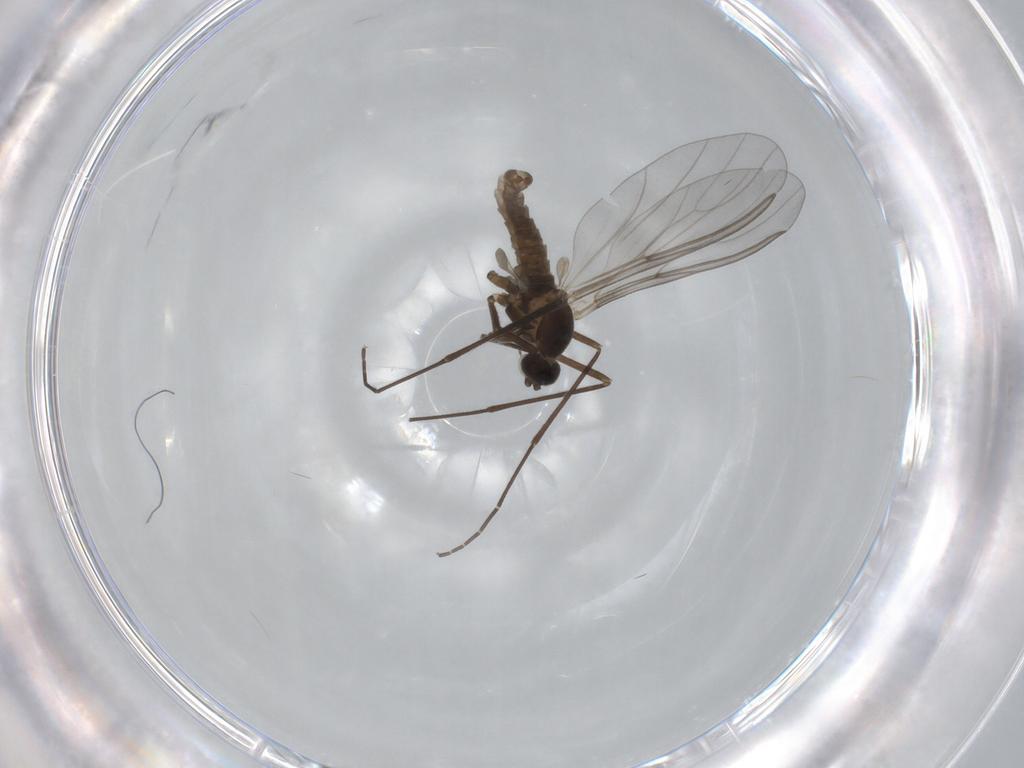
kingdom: Animalia
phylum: Arthropoda
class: Insecta
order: Diptera
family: Cecidomyiidae
